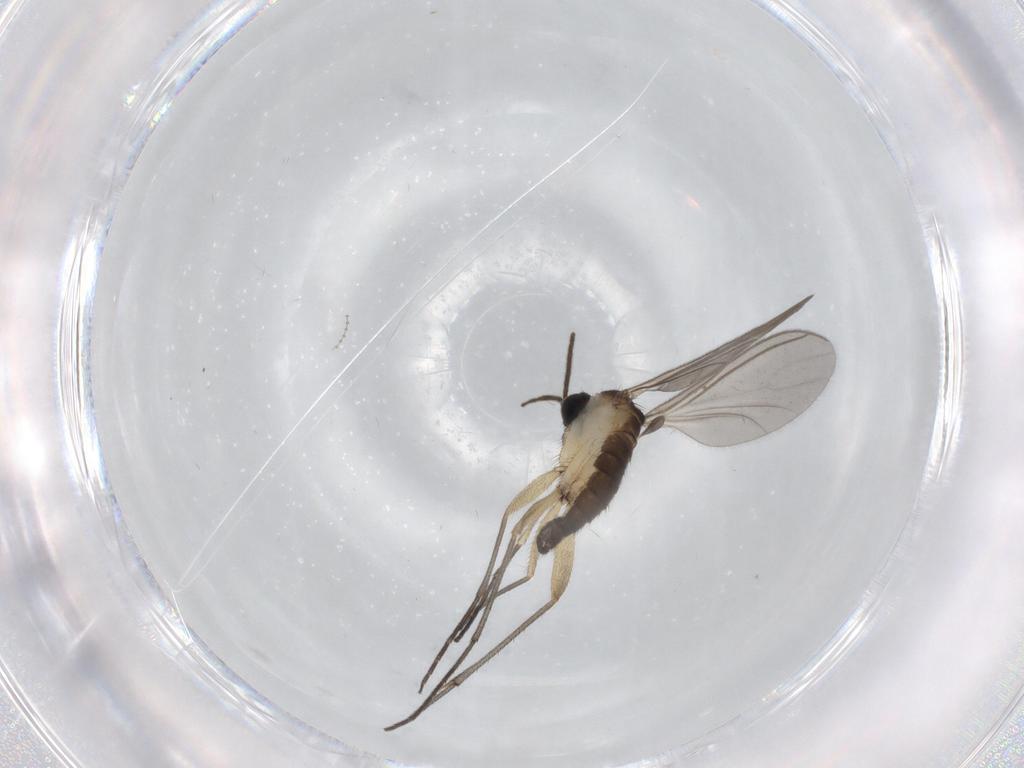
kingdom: Animalia
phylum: Arthropoda
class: Insecta
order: Diptera
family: Sciaridae
